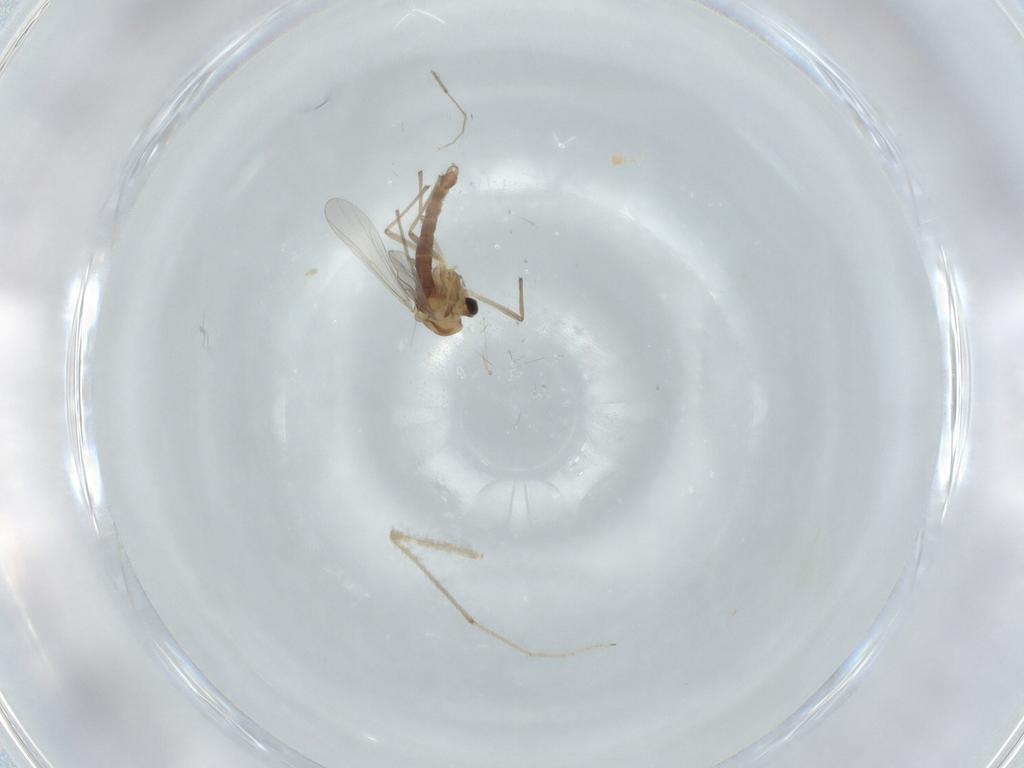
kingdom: Animalia
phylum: Arthropoda
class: Insecta
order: Diptera
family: Chironomidae
